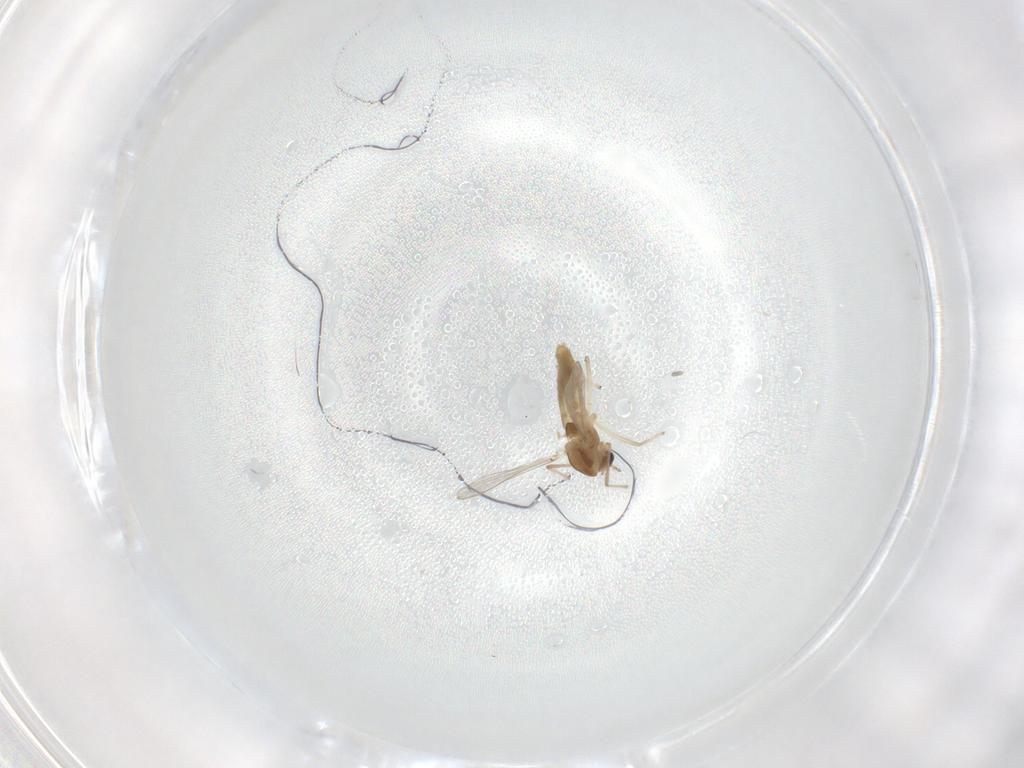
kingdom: Animalia
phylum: Arthropoda
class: Insecta
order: Diptera
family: Chironomidae
